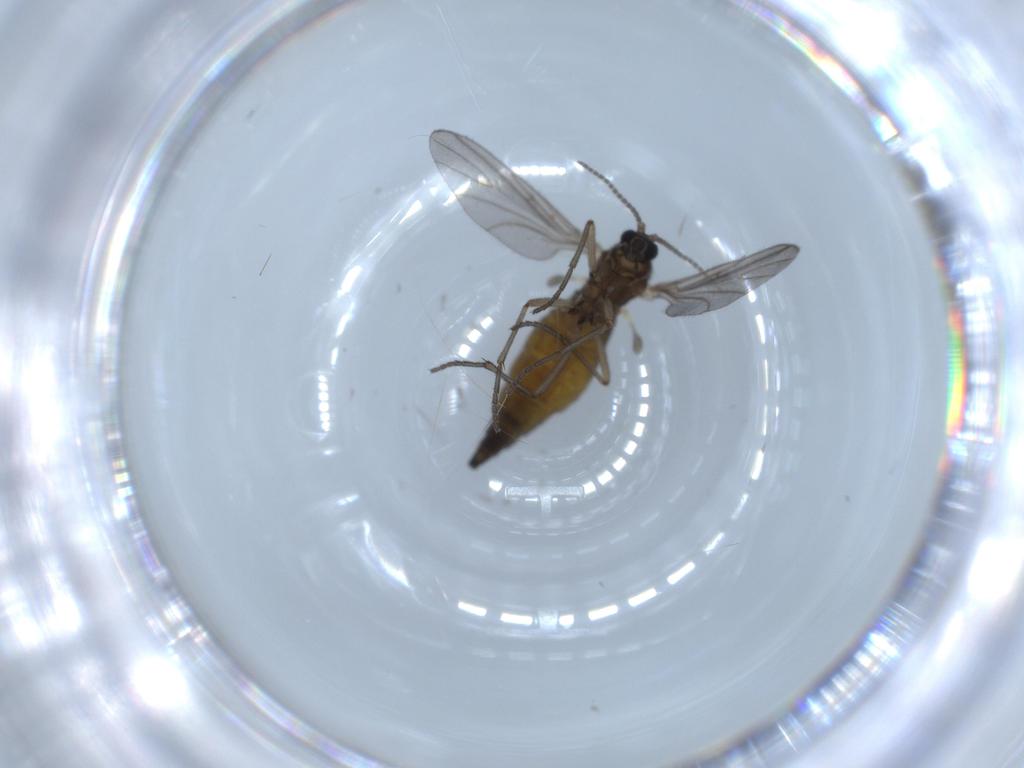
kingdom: Animalia
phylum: Arthropoda
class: Insecta
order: Diptera
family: Sciaridae
